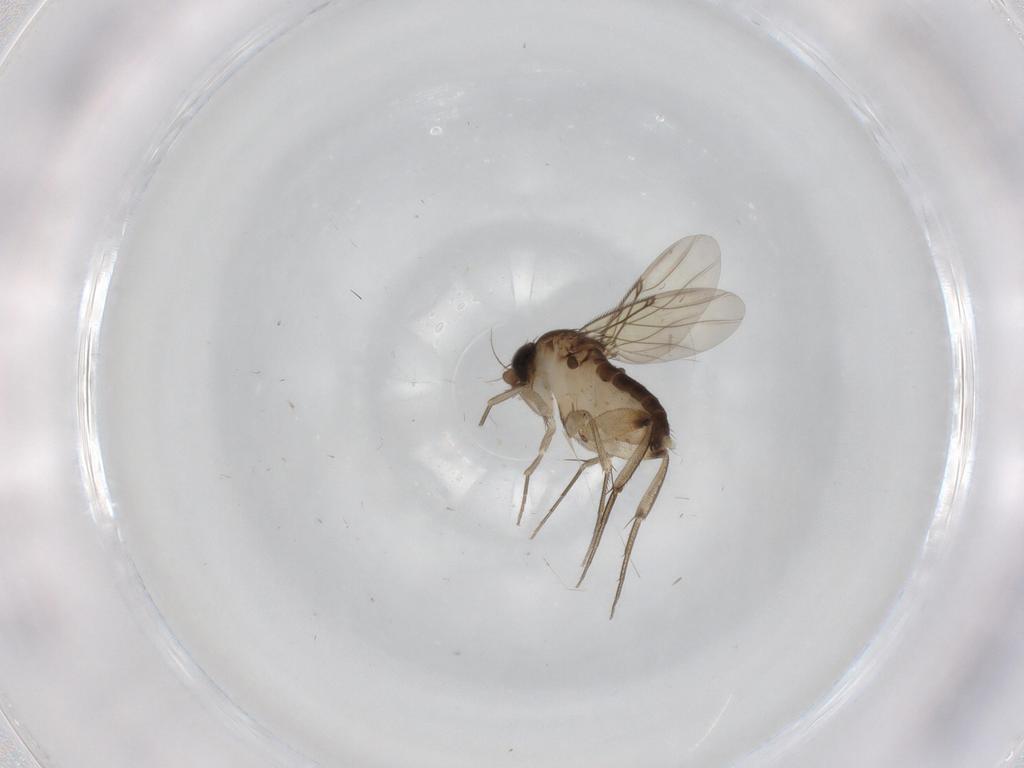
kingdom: Animalia
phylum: Arthropoda
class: Insecta
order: Diptera
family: Phoridae
